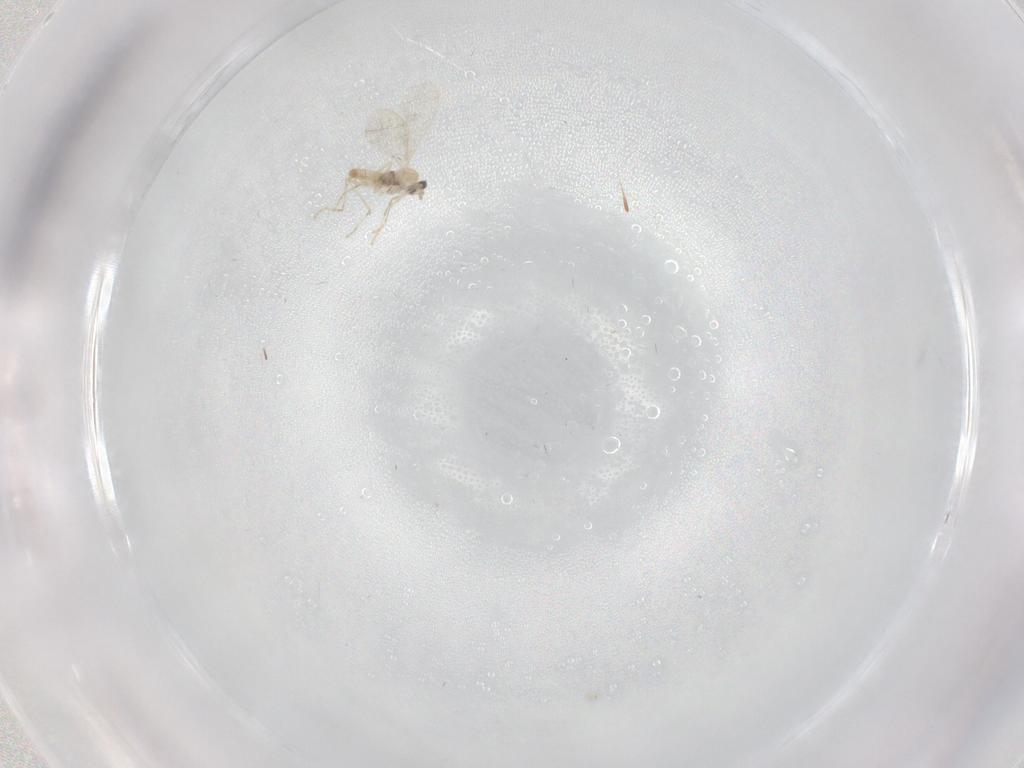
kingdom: Animalia
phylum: Arthropoda
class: Insecta
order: Diptera
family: Cecidomyiidae
